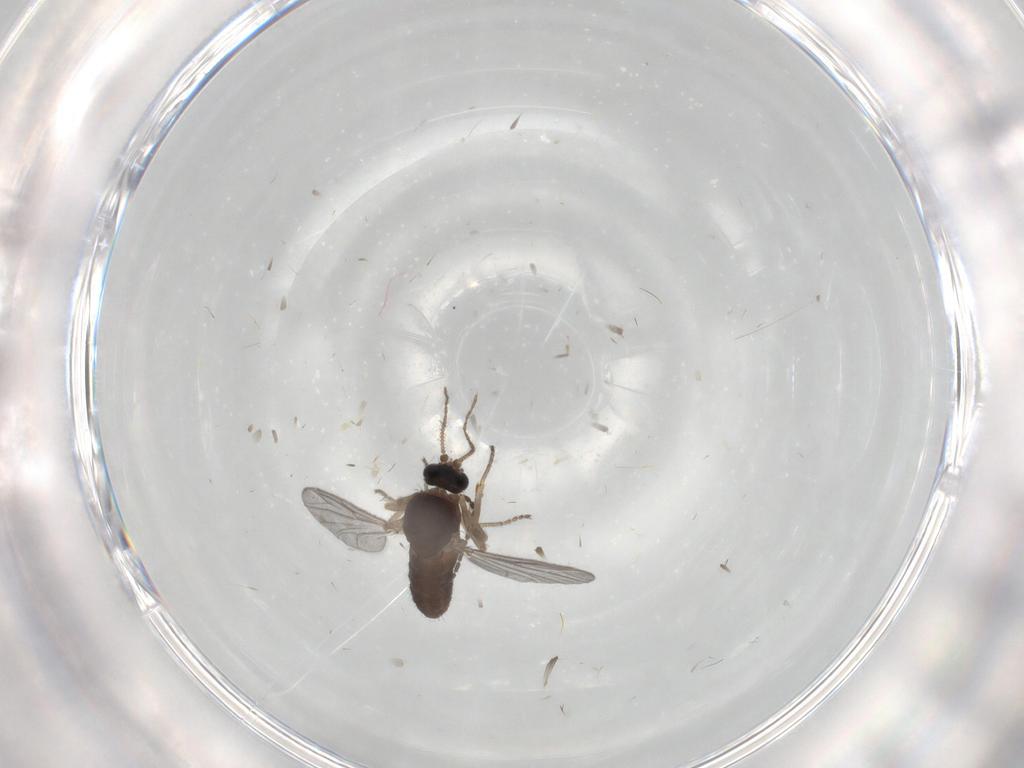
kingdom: Animalia
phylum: Arthropoda
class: Insecta
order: Diptera
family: Ceratopogonidae
